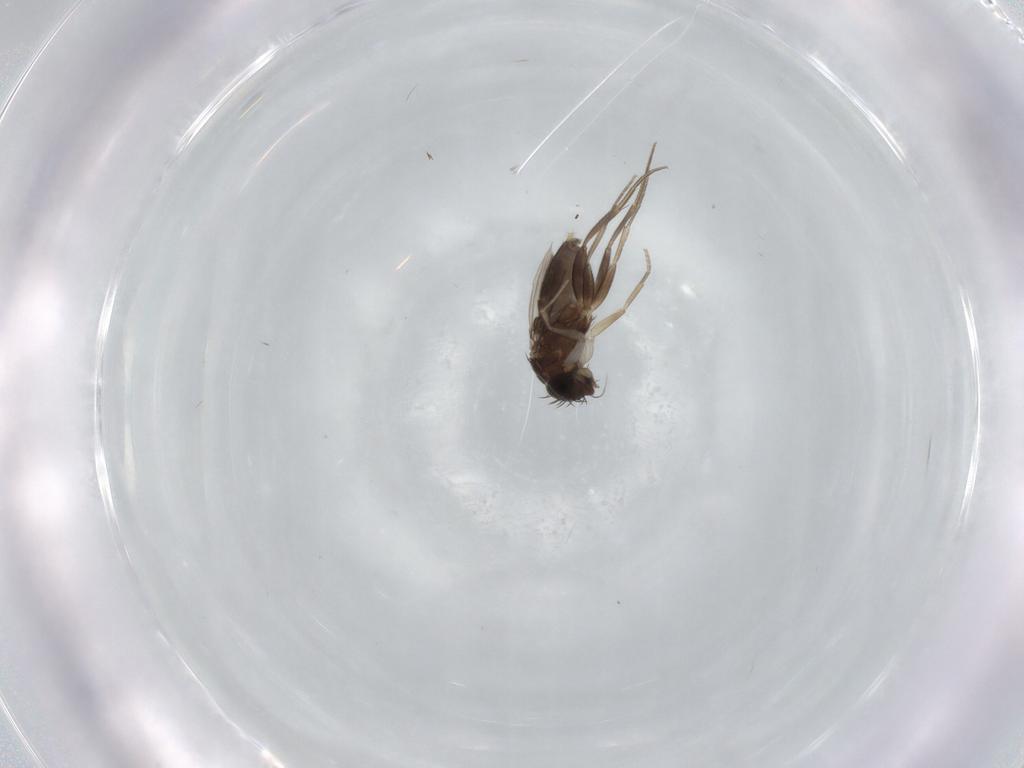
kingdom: Animalia
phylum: Arthropoda
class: Insecta
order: Diptera
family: Phoridae
